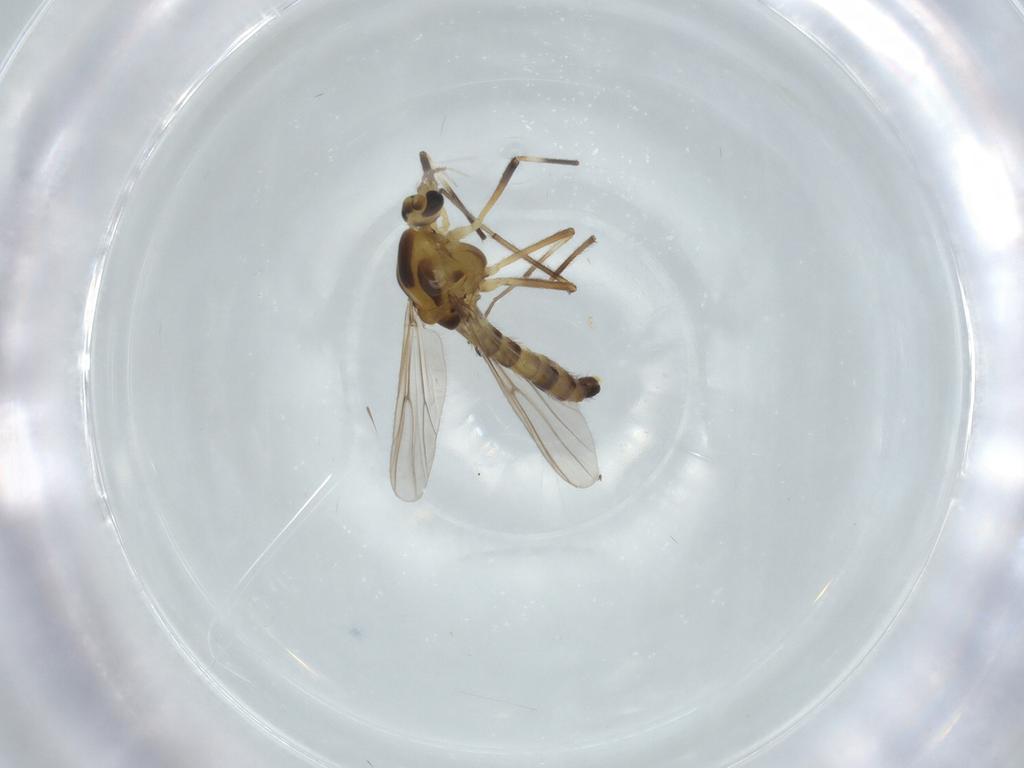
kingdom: Animalia
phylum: Arthropoda
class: Insecta
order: Diptera
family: Chironomidae
